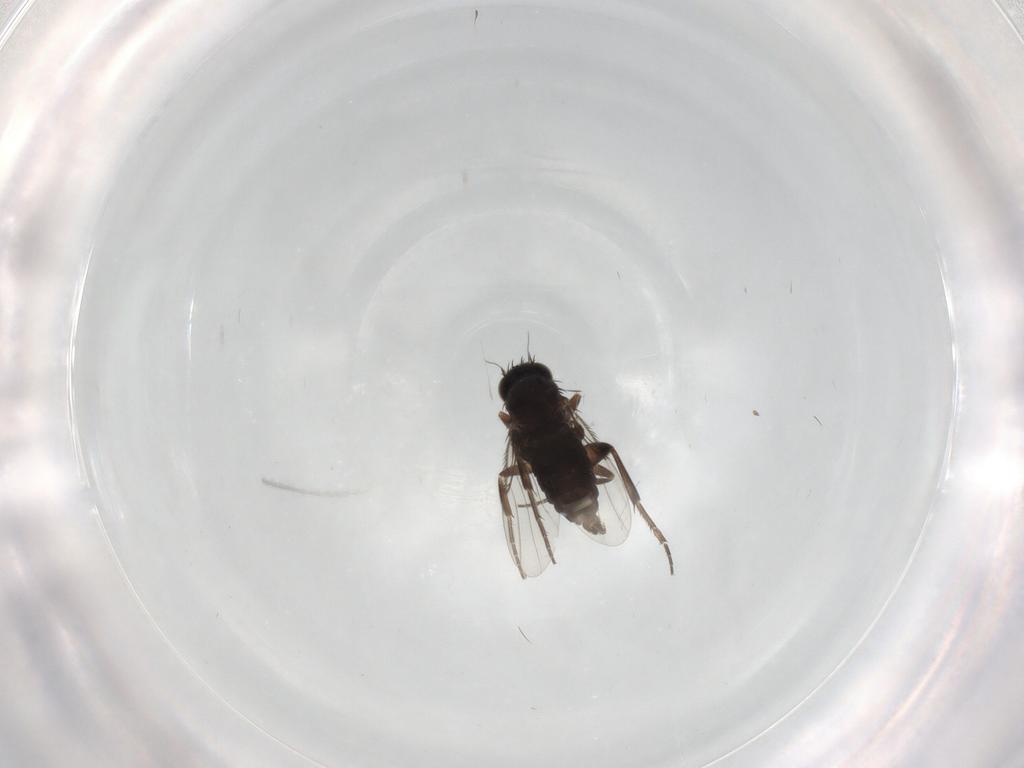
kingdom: Animalia
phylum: Arthropoda
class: Insecta
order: Diptera
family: Phoridae
